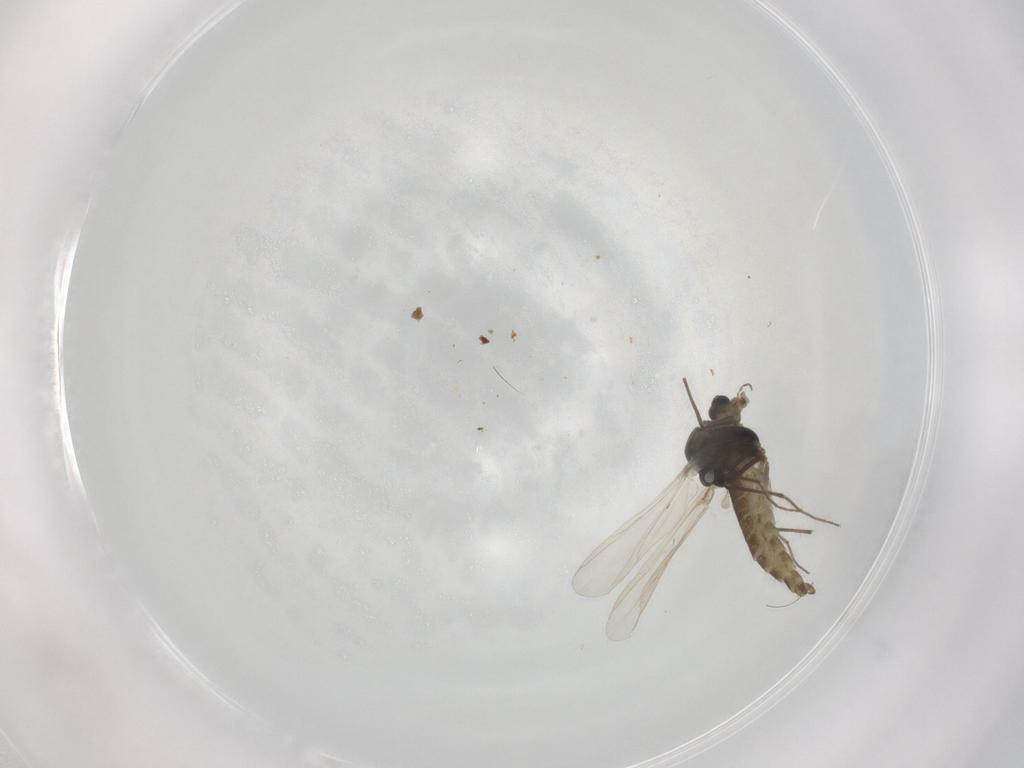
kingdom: Animalia
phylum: Arthropoda
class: Insecta
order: Diptera
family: Chironomidae
